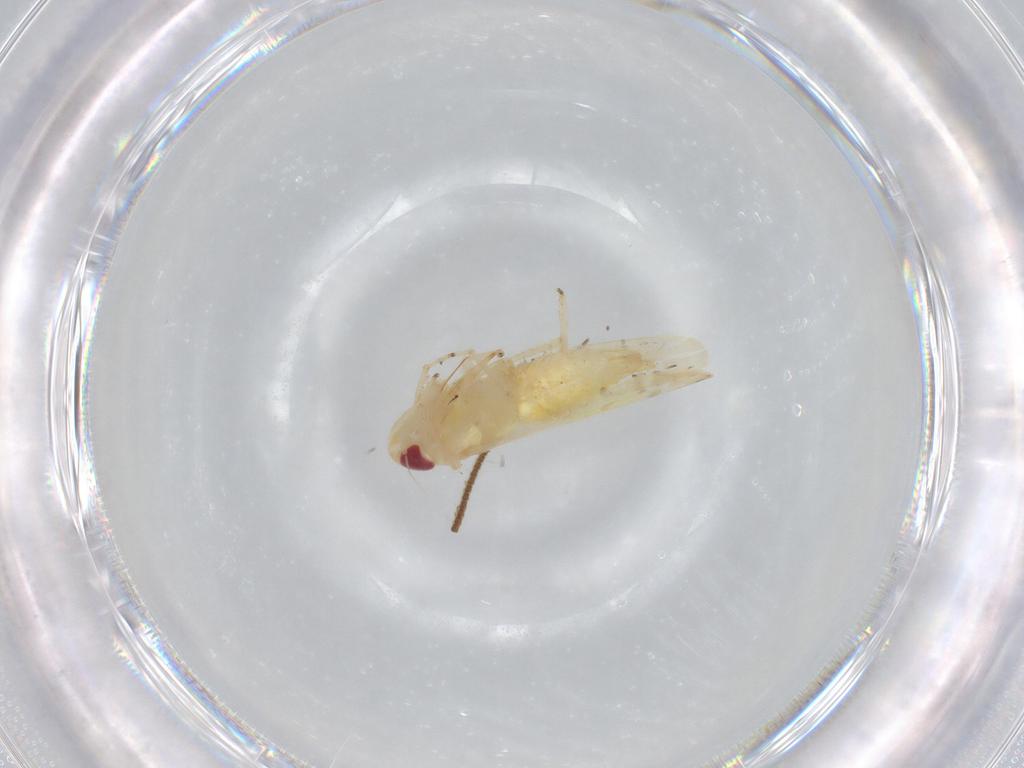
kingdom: Animalia
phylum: Arthropoda
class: Insecta
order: Hemiptera
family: Cicadellidae
